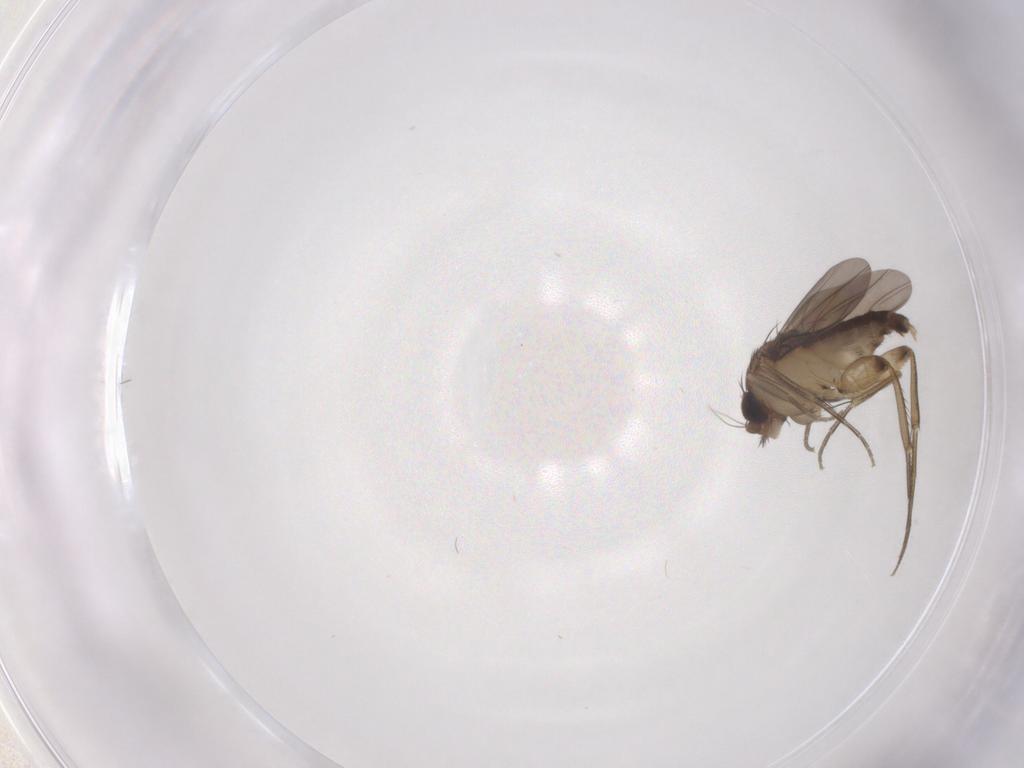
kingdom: Animalia
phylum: Arthropoda
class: Insecta
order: Diptera
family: Phoridae
